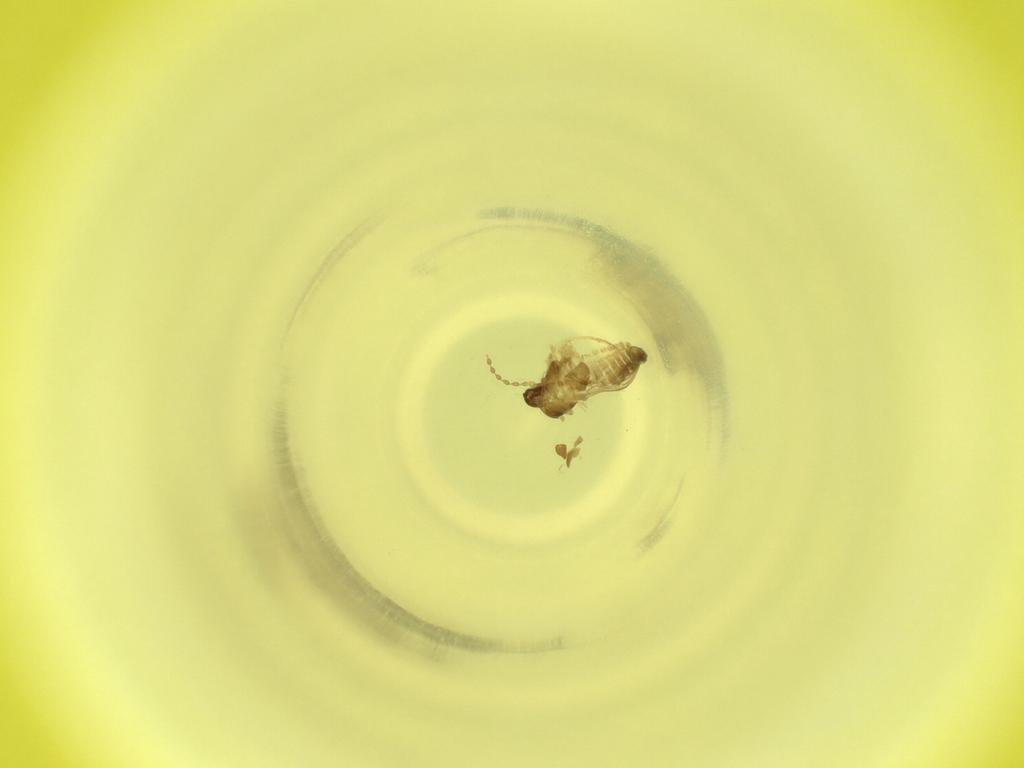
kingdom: Animalia
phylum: Arthropoda
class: Insecta
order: Diptera
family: Cecidomyiidae
